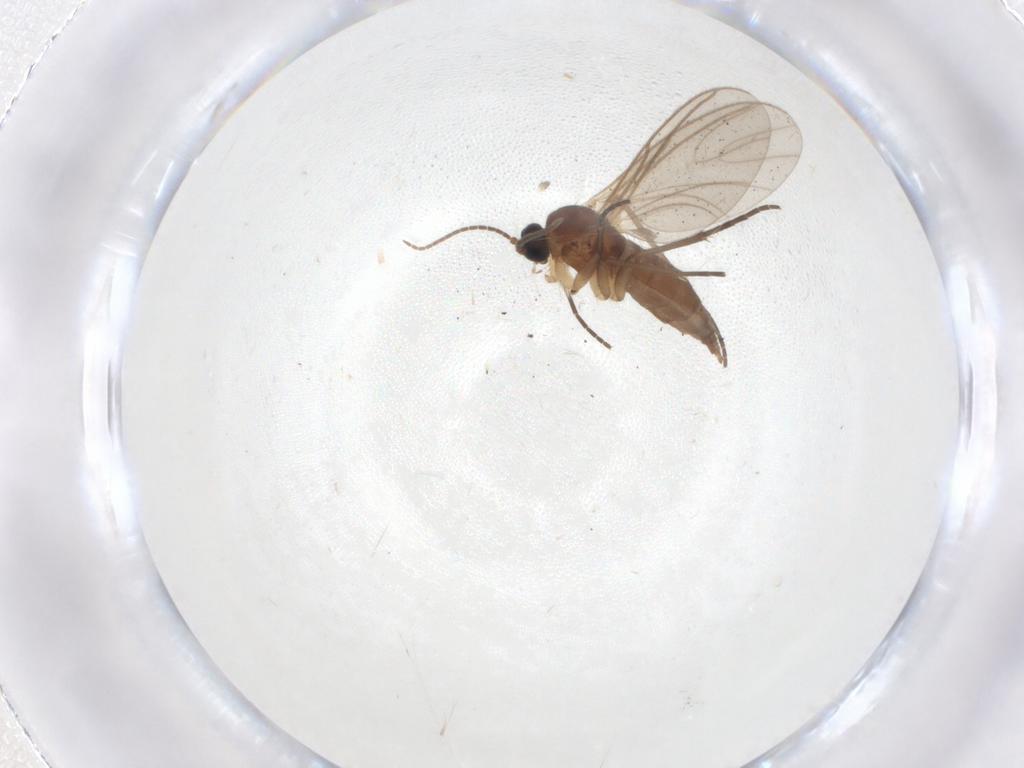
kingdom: Animalia
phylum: Arthropoda
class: Insecta
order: Diptera
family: Sciaridae
